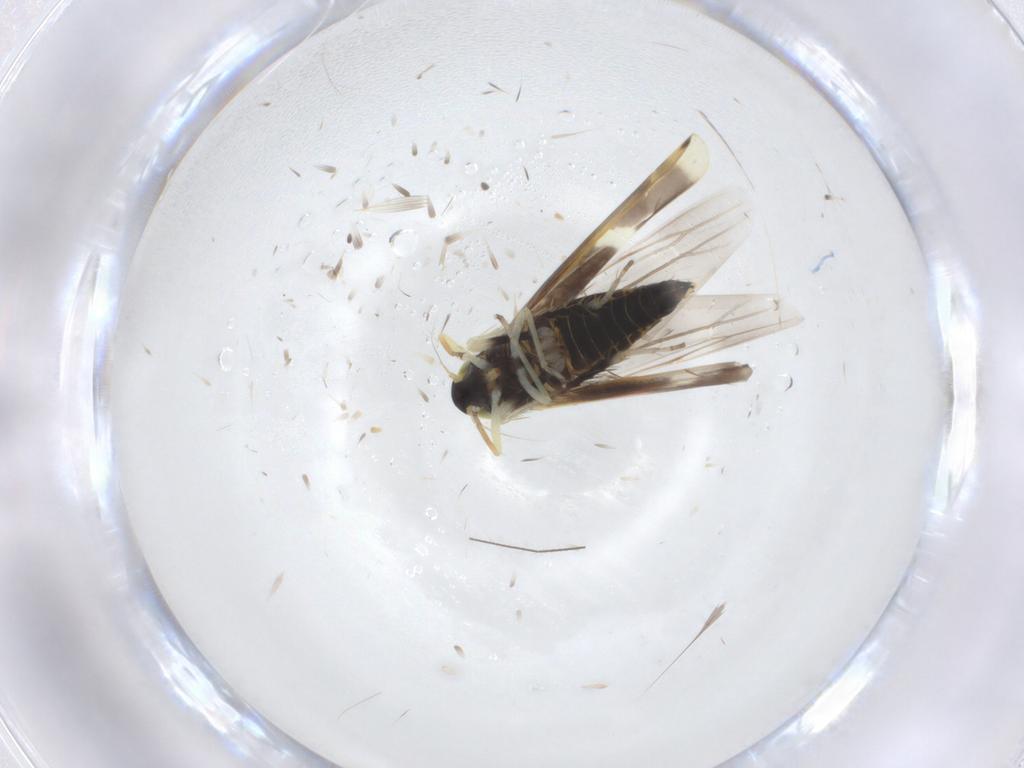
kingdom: Animalia
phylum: Arthropoda
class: Insecta
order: Hemiptera
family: Cicadellidae
